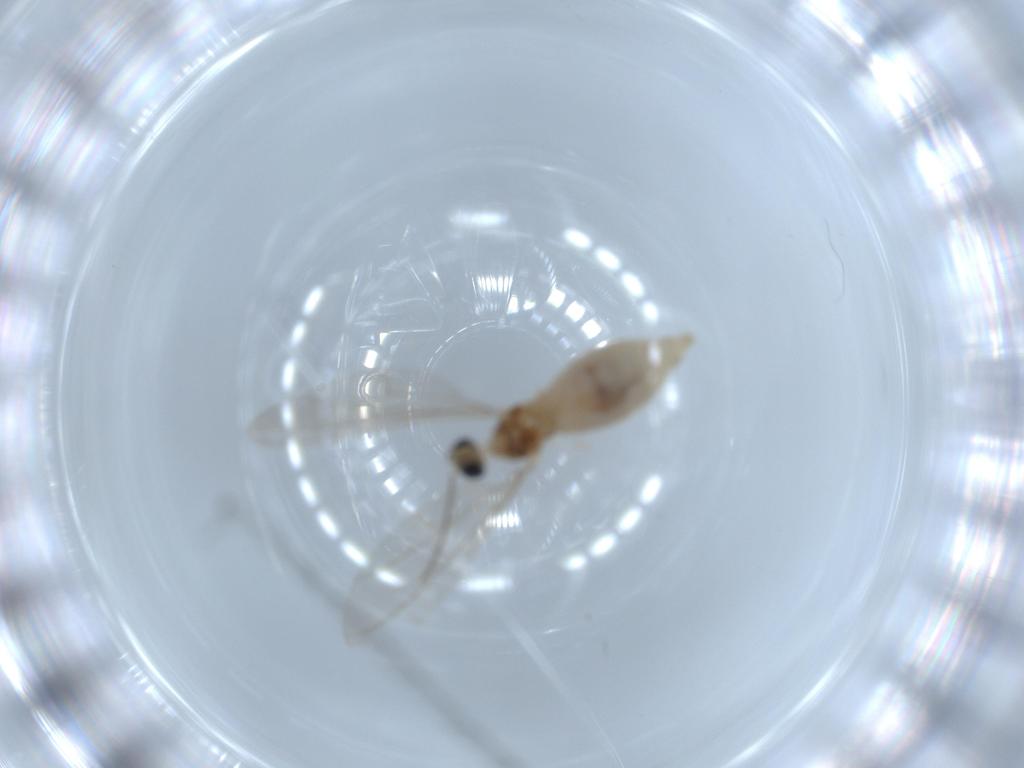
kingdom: Animalia
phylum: Arthropoda
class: Insecta
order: Diptera
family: Sciaridae
